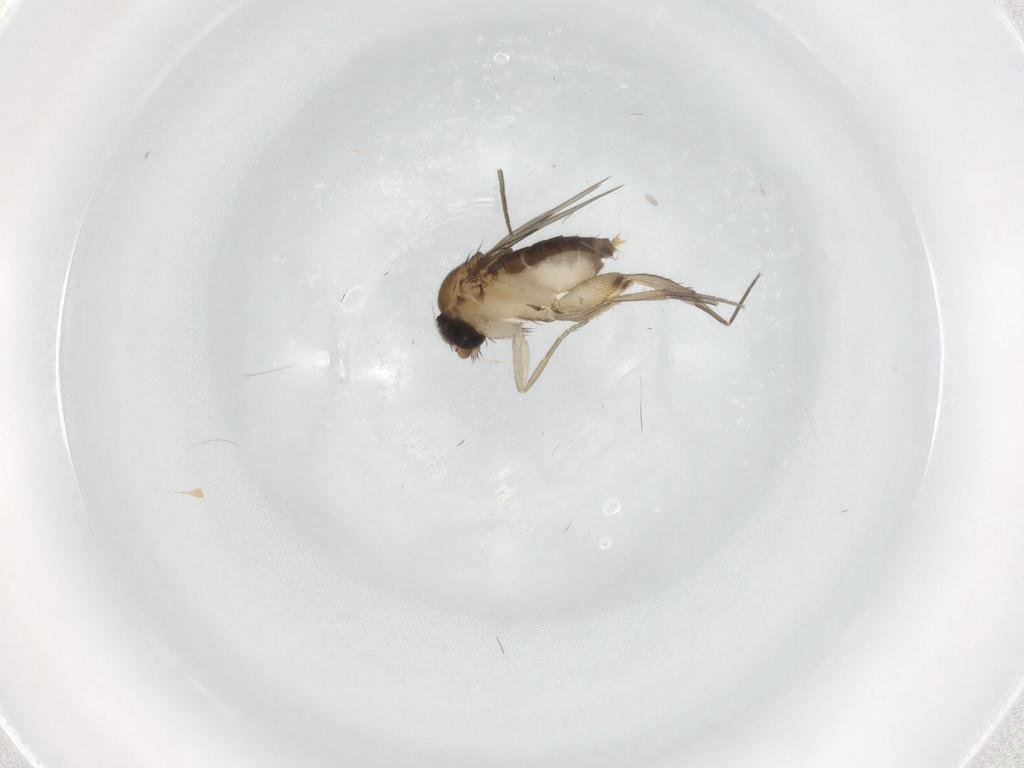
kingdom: Animalia
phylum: Arthropoda
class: Insecta
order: Diptera
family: Phoridae
